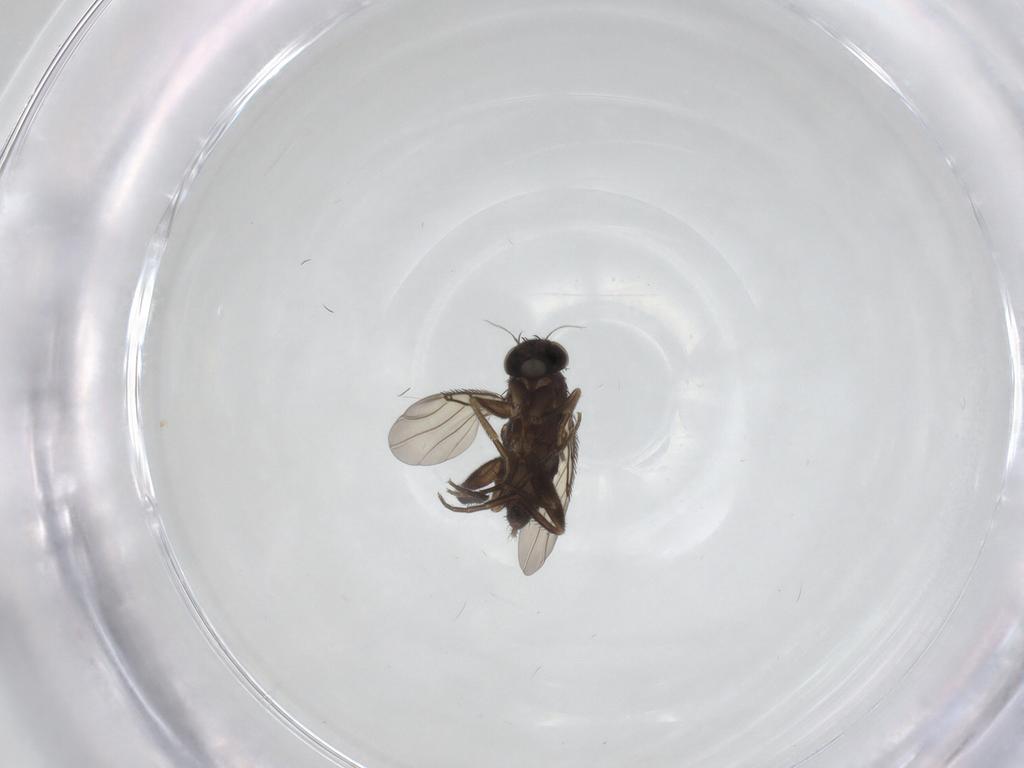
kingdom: Animalia
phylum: Arthropoda
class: Insecta
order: Diptera
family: Phoridae
